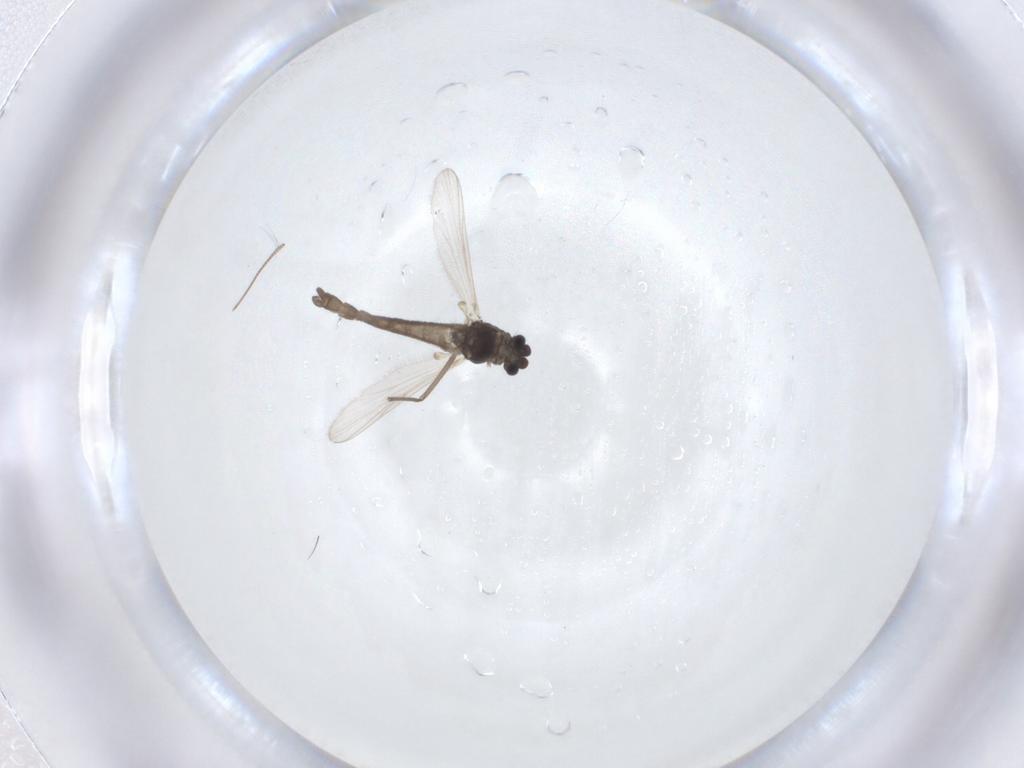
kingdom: Animalia
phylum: Arthropoda
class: Insecta
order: Diptera
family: Chironomidae
